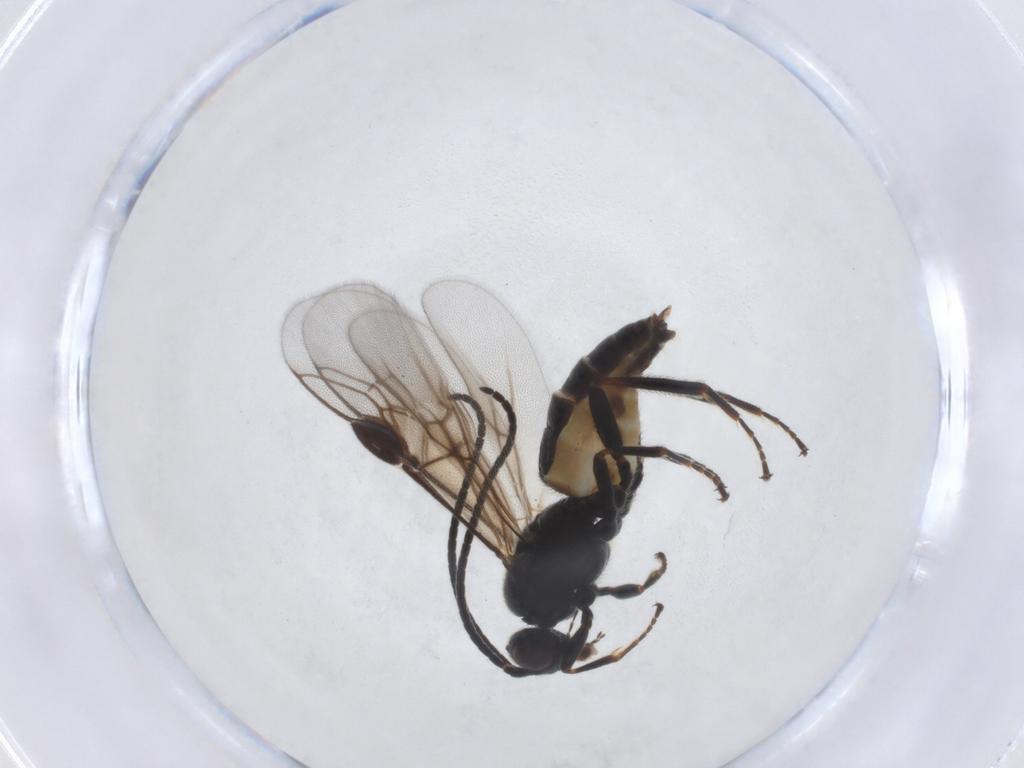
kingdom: Animalia
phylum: Arthropoda
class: Insecta
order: Hymenoptera
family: Braconidae
